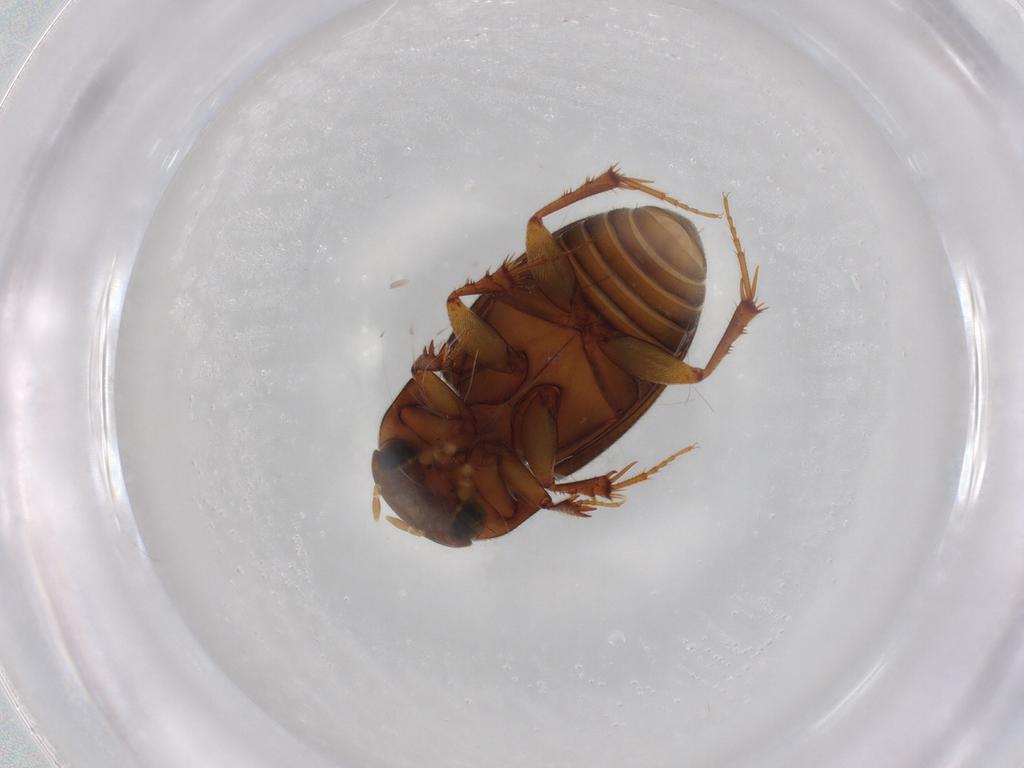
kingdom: Animalia
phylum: Arthropoda
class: Insecta
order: Coleoptera
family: Scarabaeidae
